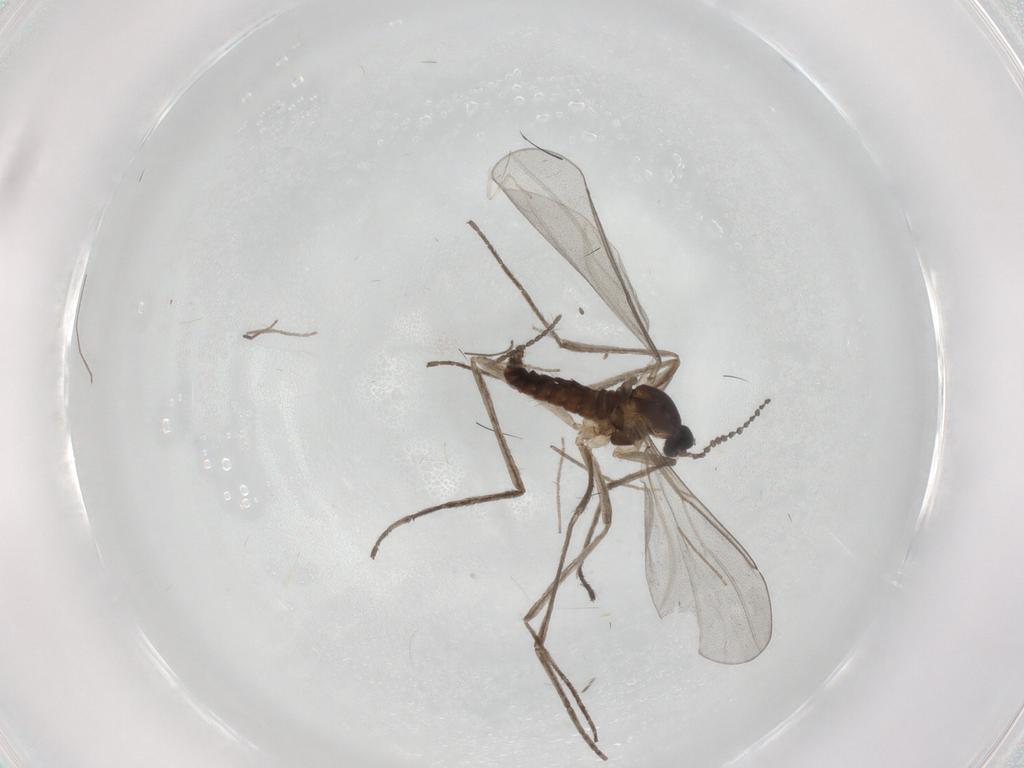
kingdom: Animalia
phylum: Arthropoda
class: Insecta
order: Diptera
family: Cecidomyiidae
